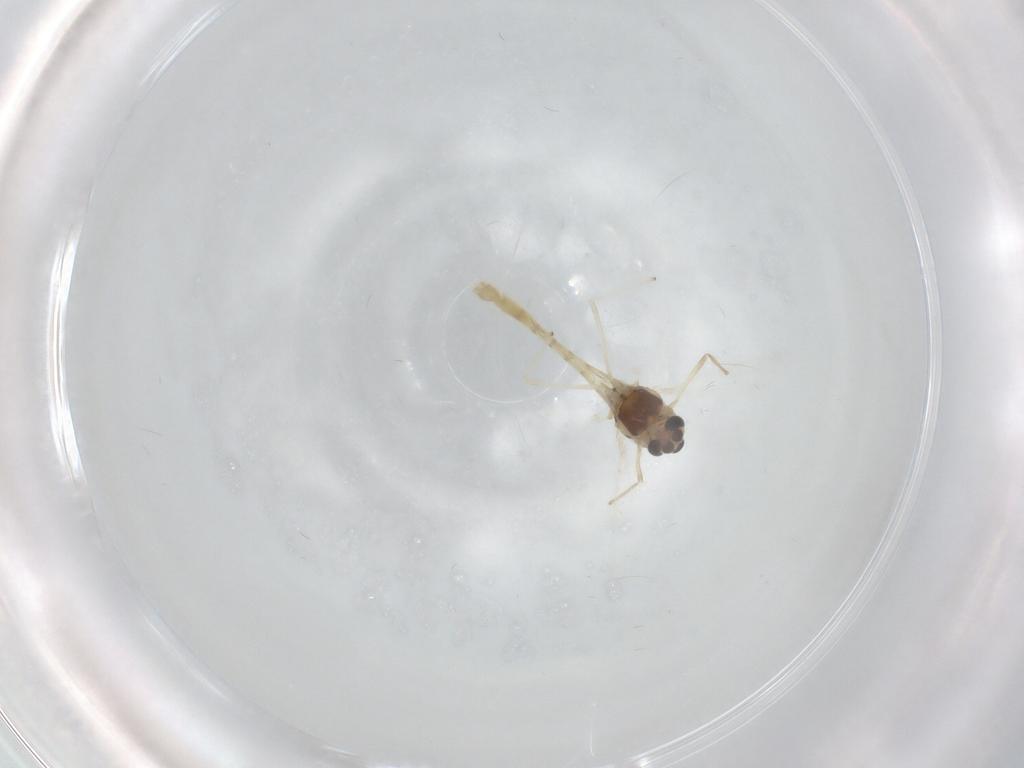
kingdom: Animalia
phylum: Arthropoda
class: Insecta
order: Diptera
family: Chironomidae
